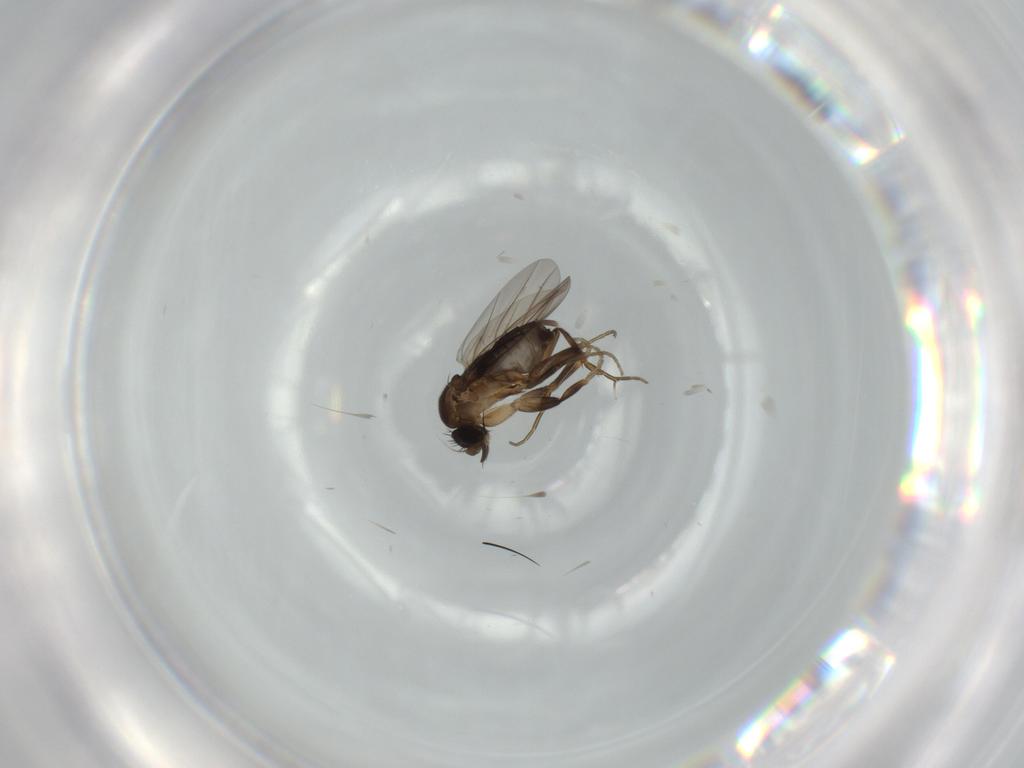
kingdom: Animalia
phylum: Arthropoda
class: Insecta
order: Diptera
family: Phoridae
